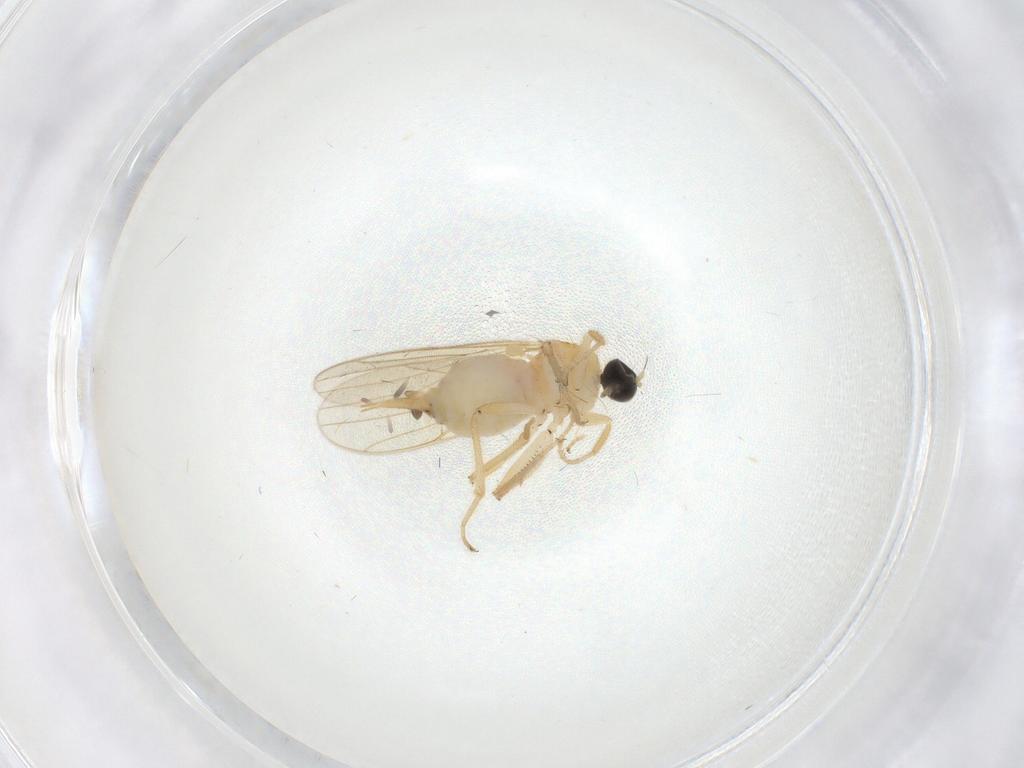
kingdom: Animalia
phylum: Arthropoda
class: Insecta
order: Diptera
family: Hybotidae
